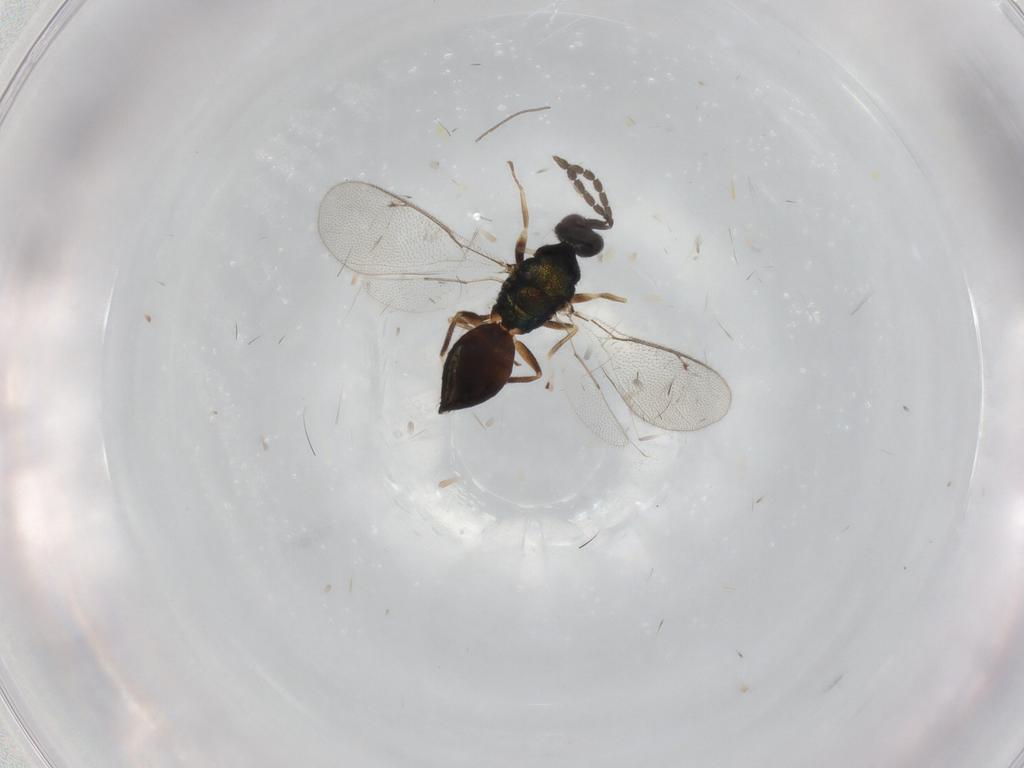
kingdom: Animalia
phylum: Arthropoda
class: Insecta
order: Hymenoptera
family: Eulophidae
